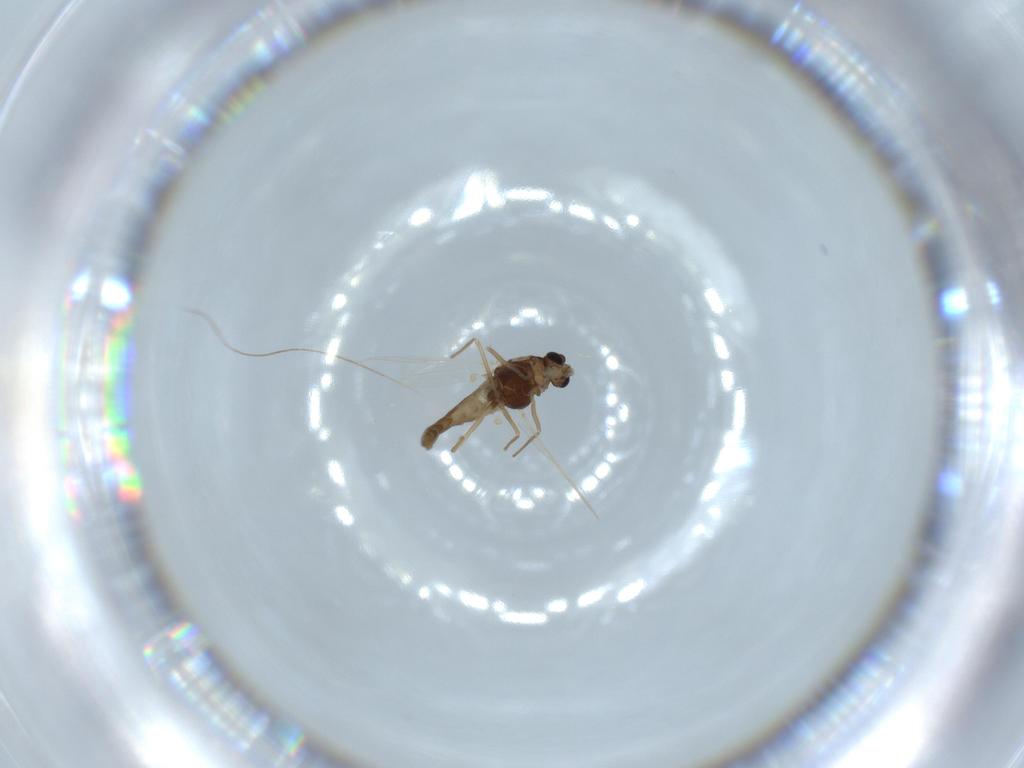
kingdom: Animalia
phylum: Arthropoda
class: Insecta
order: Diptera
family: Chironomidae
